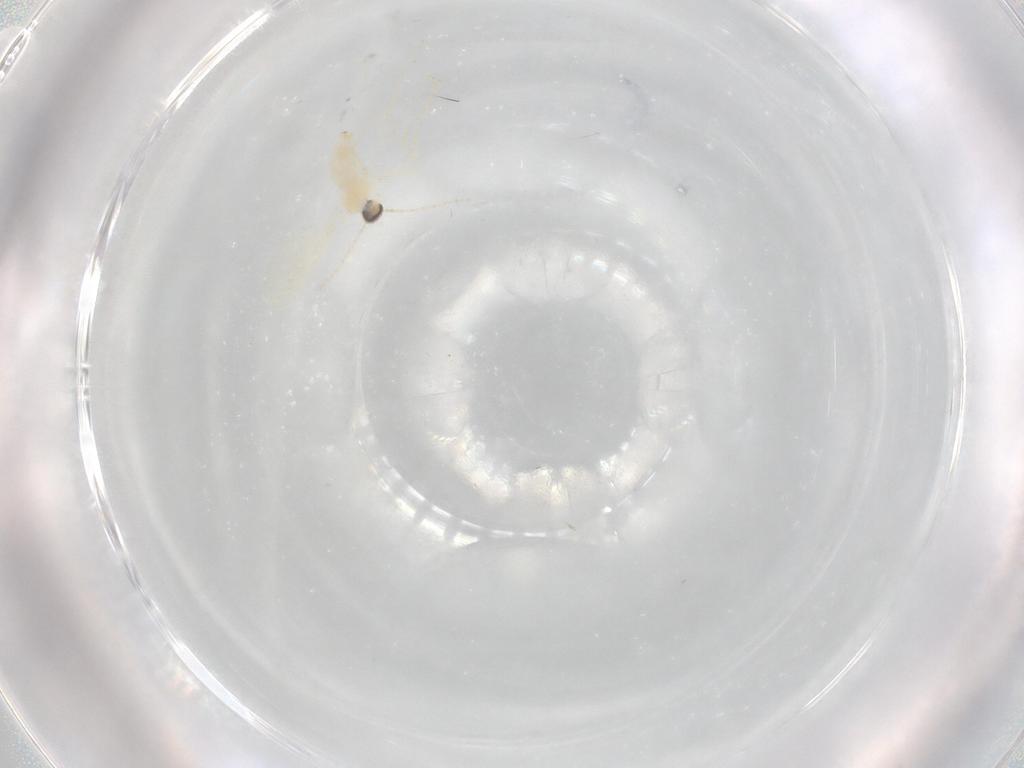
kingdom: Animalia
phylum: Arthropoda
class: Insecta
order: Diptera
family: Cecidomyiidae
